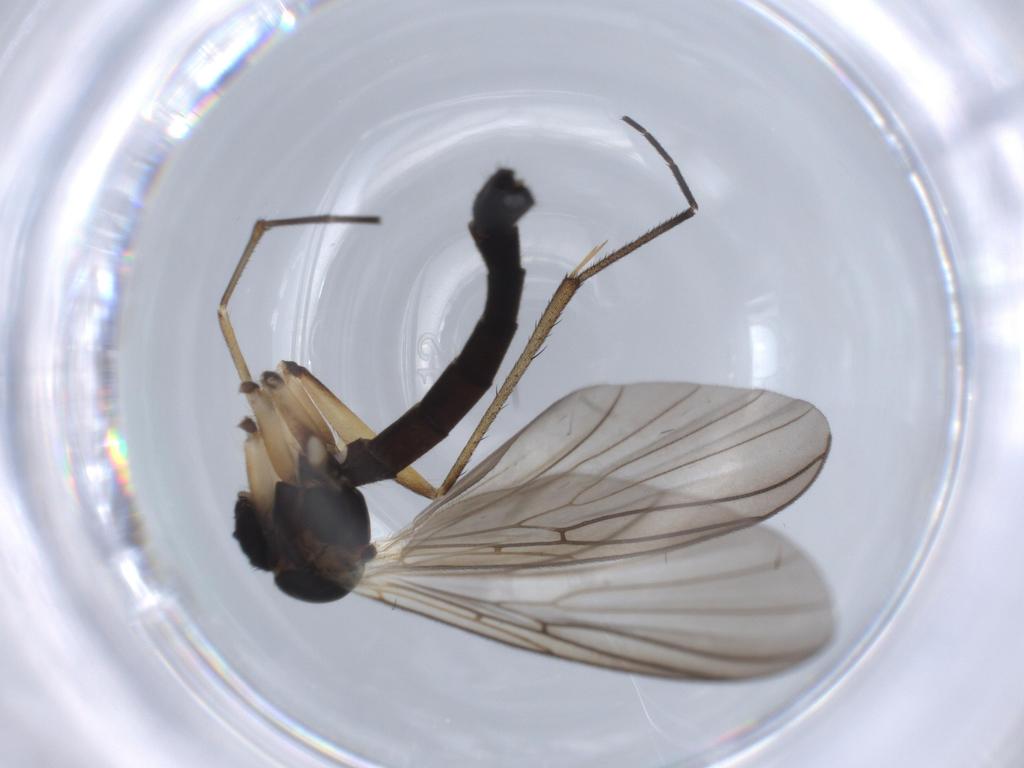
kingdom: Animalia
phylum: Arthropoda
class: Insecta
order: Diptera
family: Phoridae
